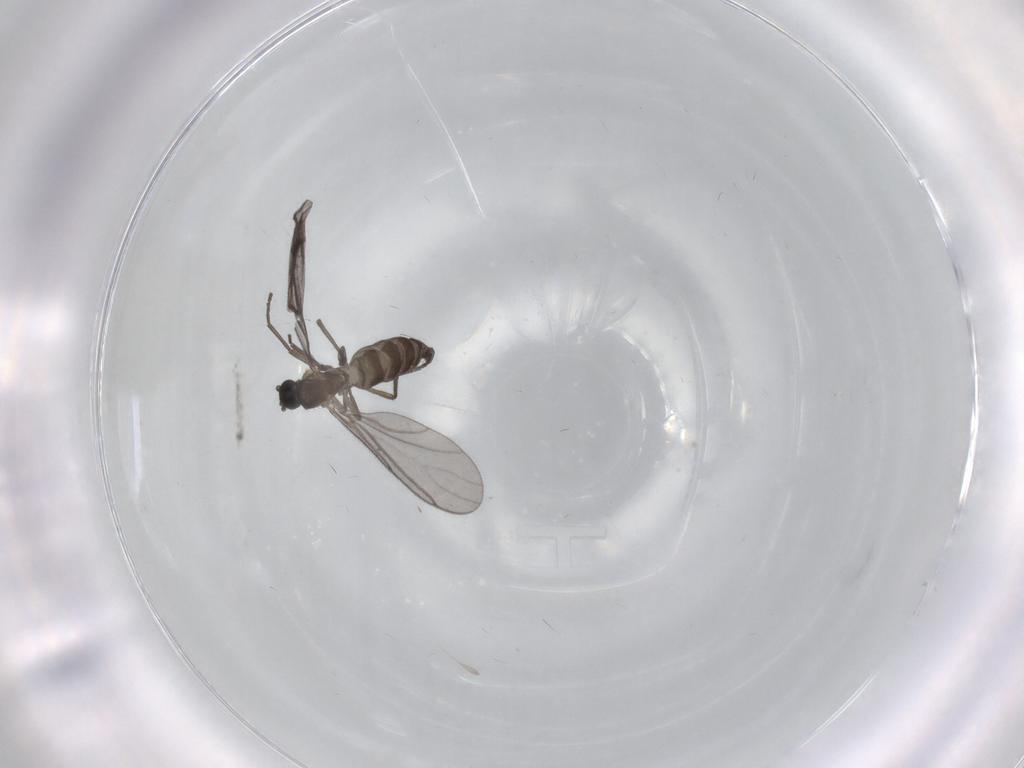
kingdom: Animalia
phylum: Arthropoda
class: Insecta
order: Diptera
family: Sciaridae
